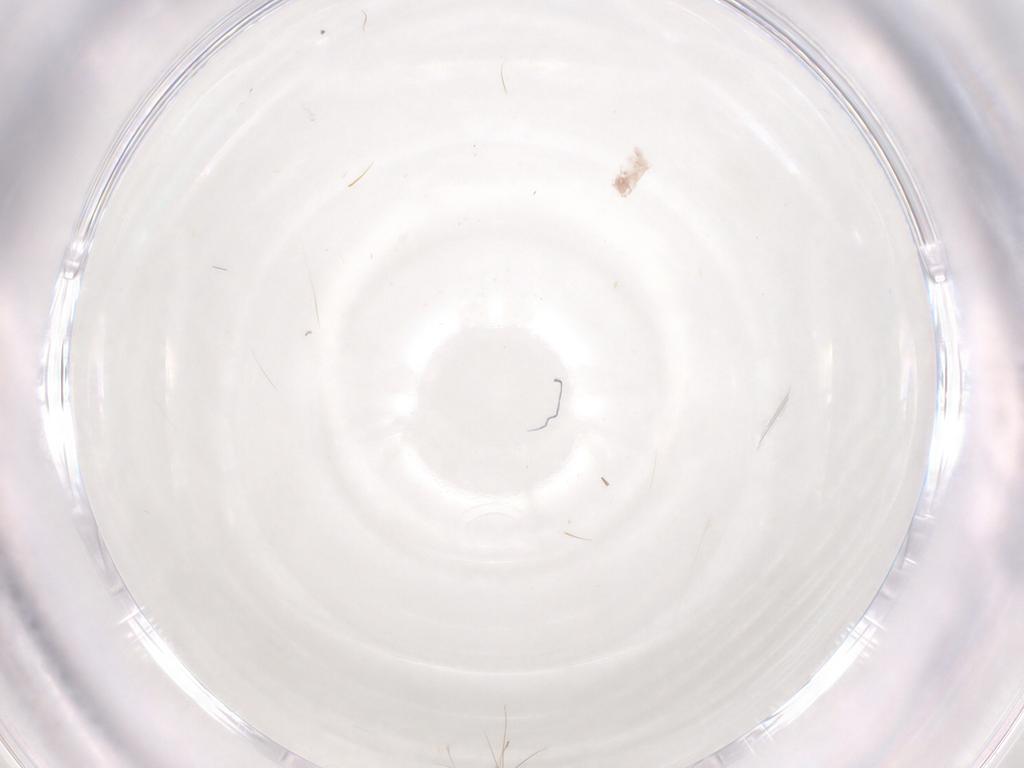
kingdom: Animalia
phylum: Arthropoda
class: Insecta
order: Hymenoptera
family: Trichogrammatidae
